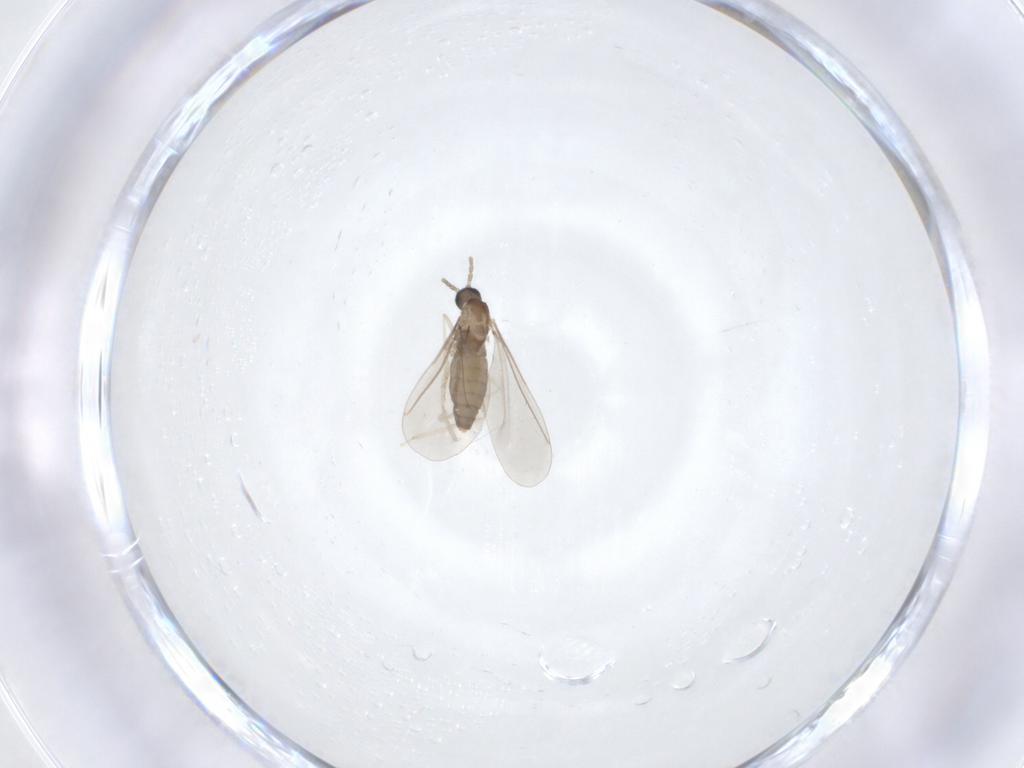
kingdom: Animalia
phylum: Arthropoda
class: Insecta
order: Diptera
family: Cecidomyiidae
